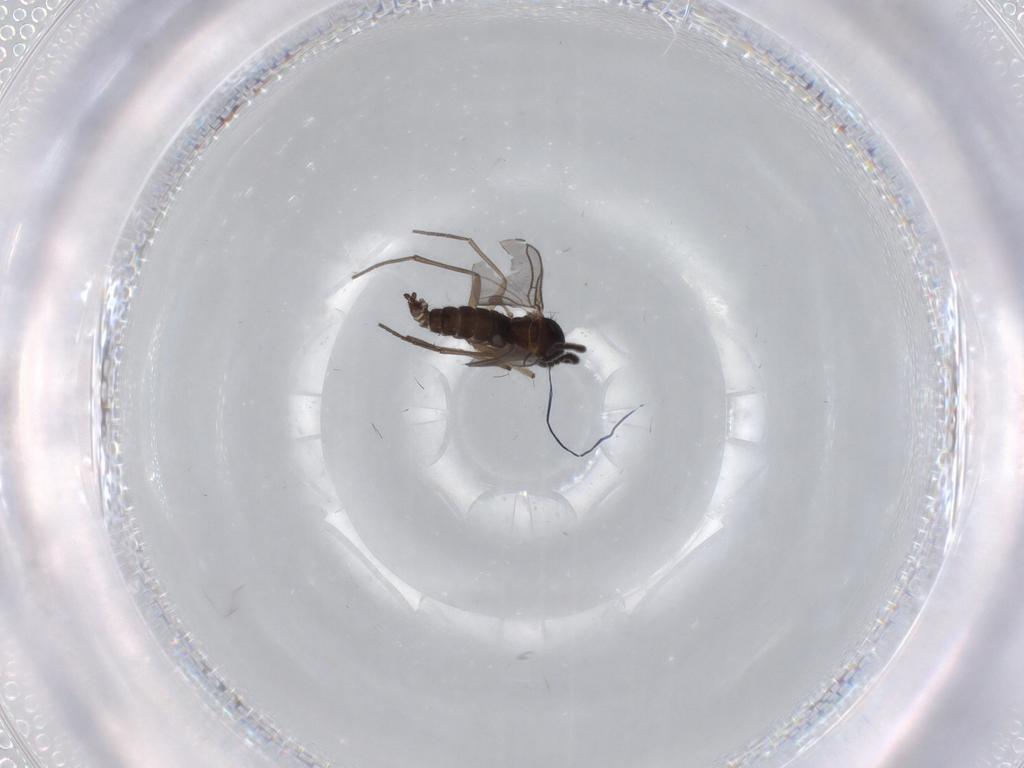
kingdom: Animalia
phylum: Arthropoda
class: Insecta
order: Diptera
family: Sciaridae
